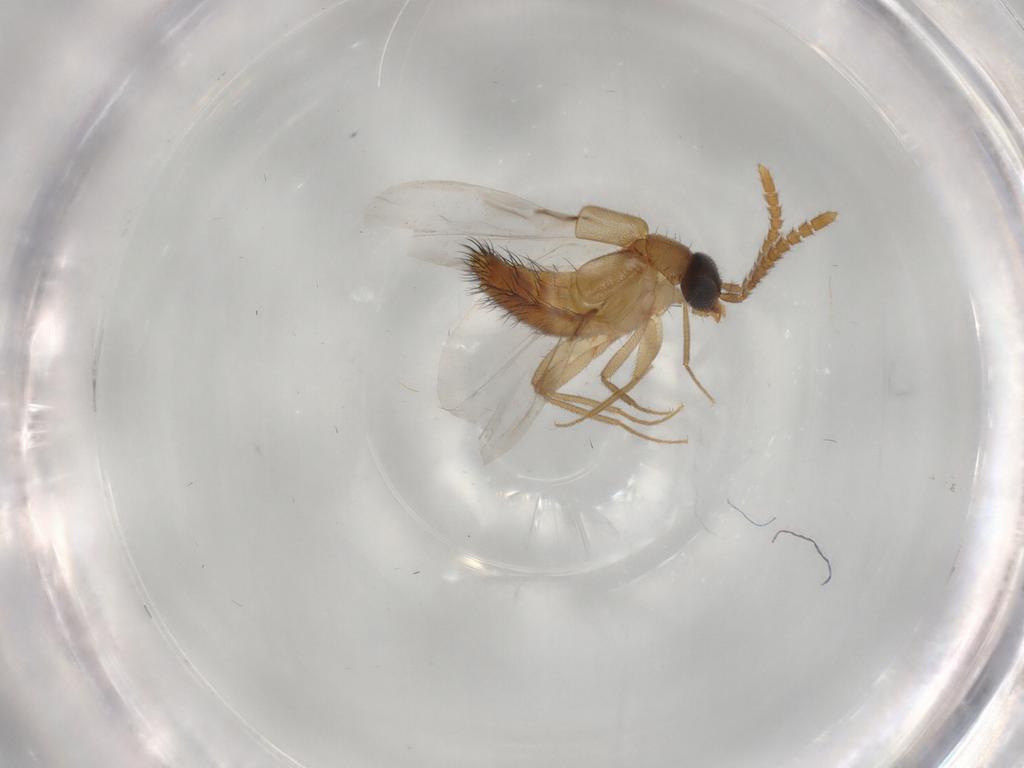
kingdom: Animalia
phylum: Arthropoda
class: Insecta
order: Coleoptera
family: Staphylinidae
